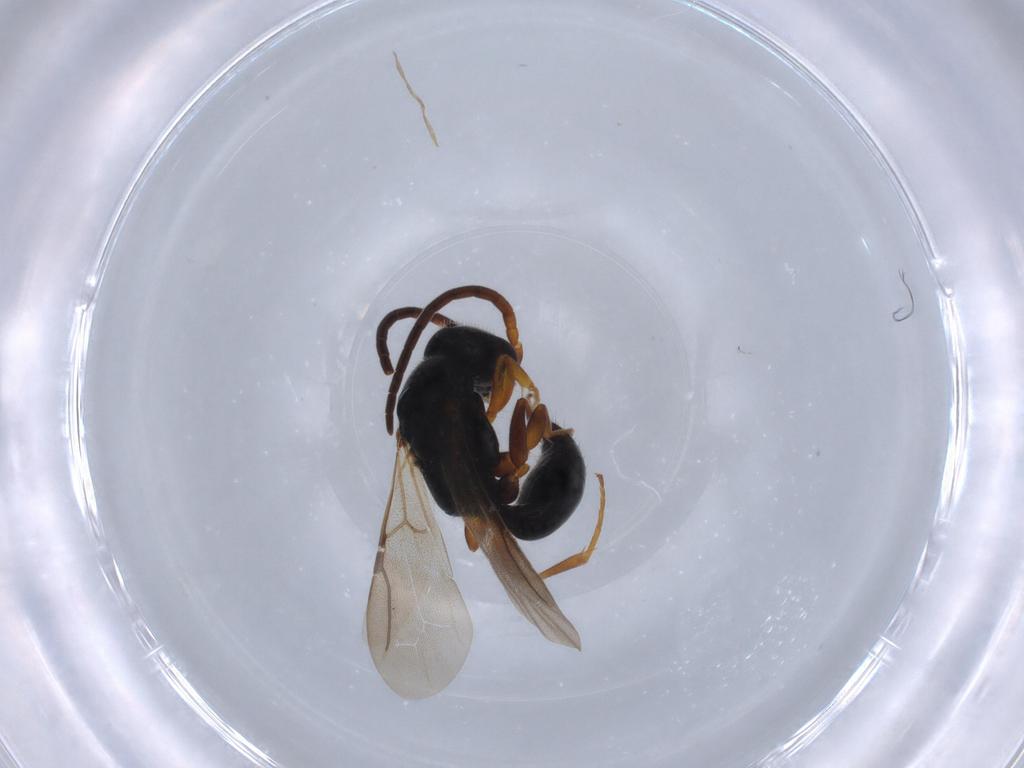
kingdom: Animalia
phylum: Arthropoda
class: Insecta
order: Hymenoptera
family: Bethylidae
